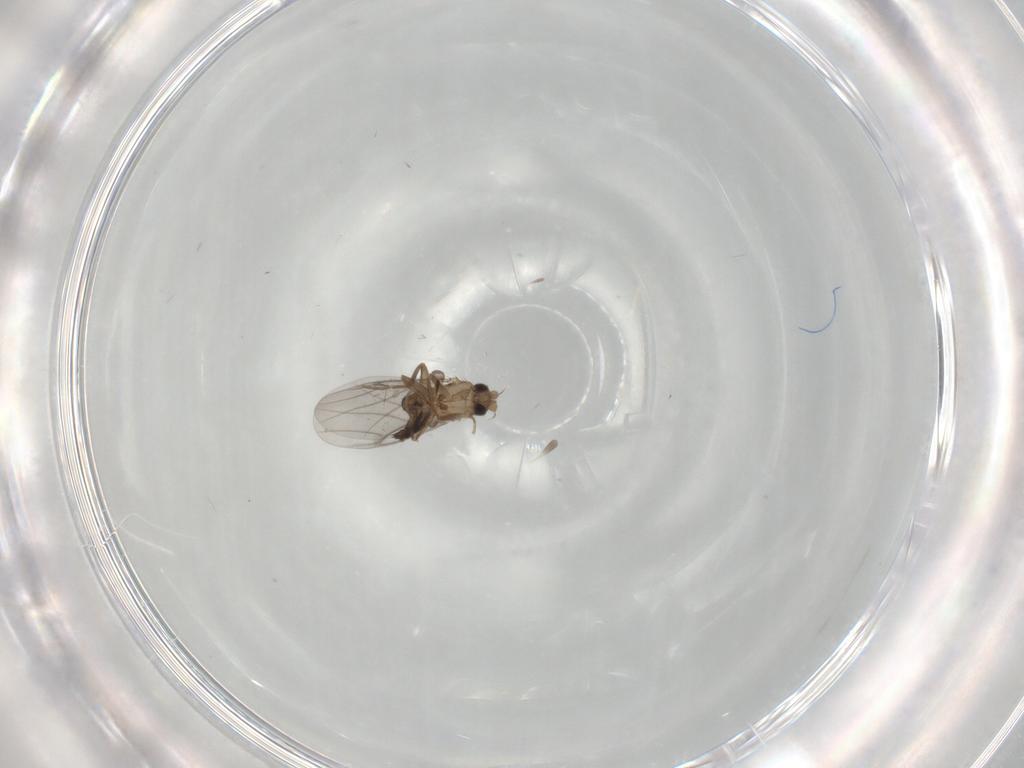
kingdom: Animalia
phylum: Arthropoda
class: Insecta
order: Diptera
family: Cecidomyiidae
